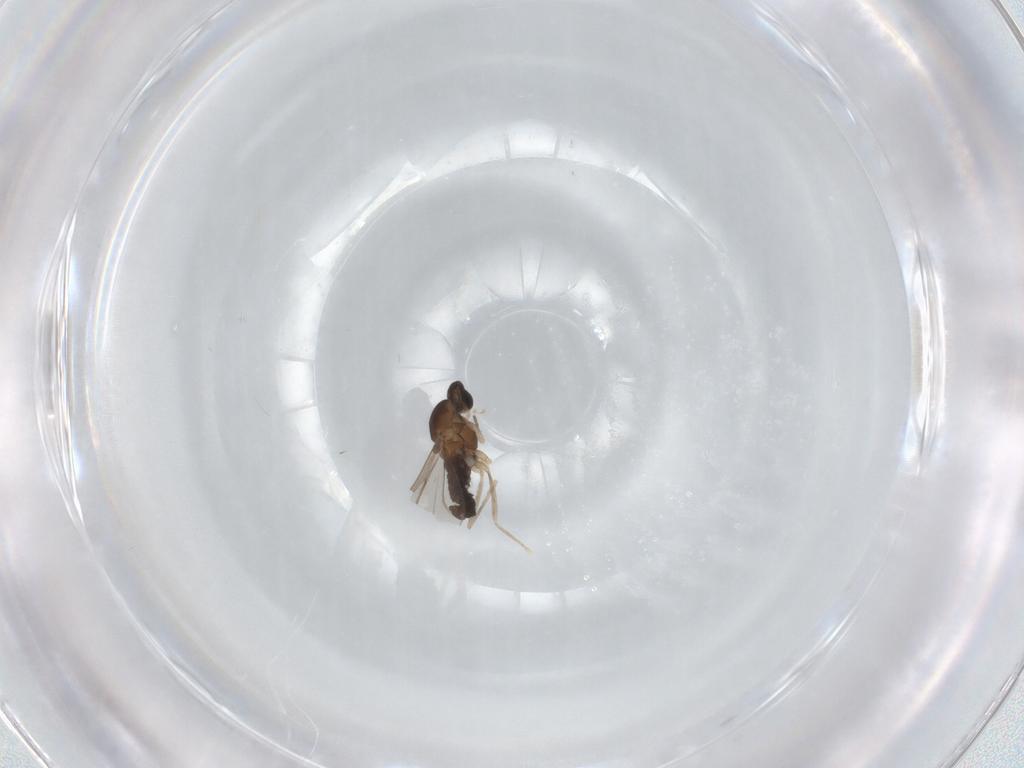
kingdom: Animalia
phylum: Arthropoda
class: Insecta
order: Diptera
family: Cecidomyiidae
